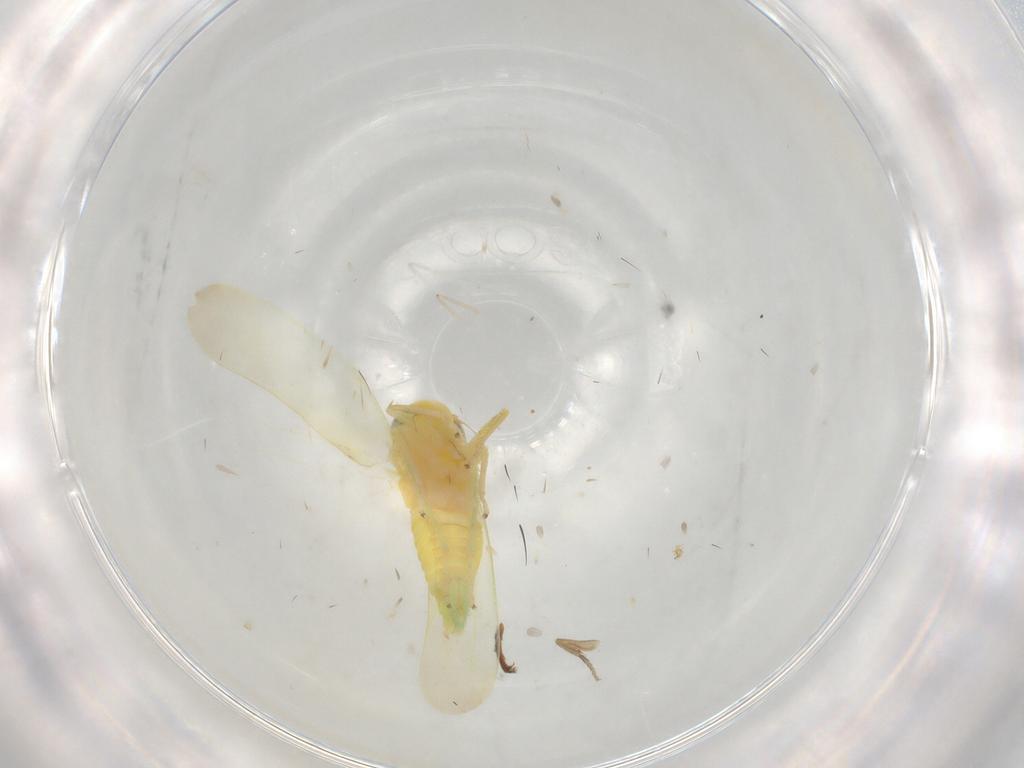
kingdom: Animalia
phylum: Arthropoda
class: Insecta
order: Hemiptera
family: Cicadellidae
